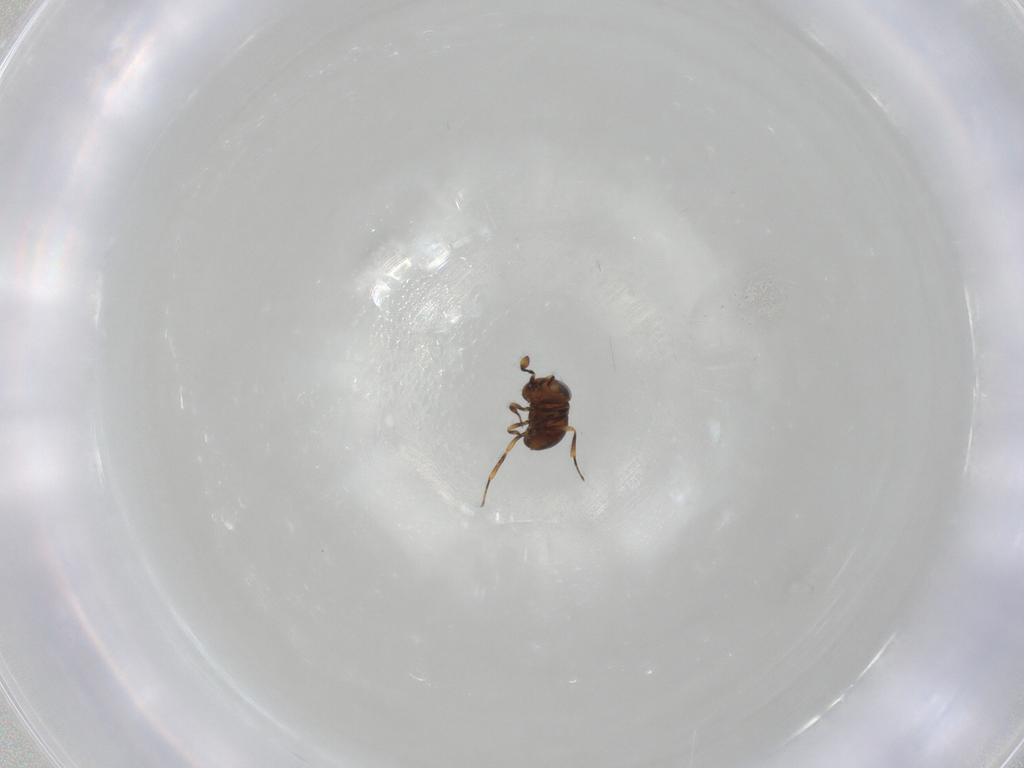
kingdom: Animalia
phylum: Arthropoda
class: Insecta
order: Hymenoptera
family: Scelionidae
